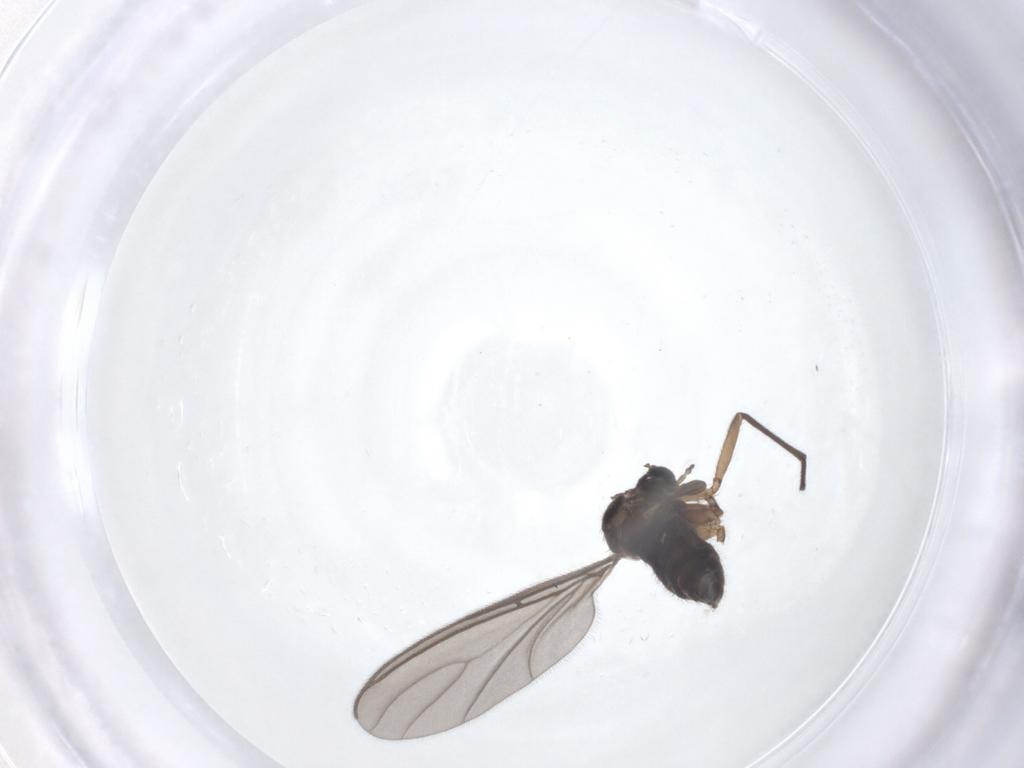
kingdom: Animalia
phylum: Arthropoda
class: Insecta
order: Diptera
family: Sciaridae
